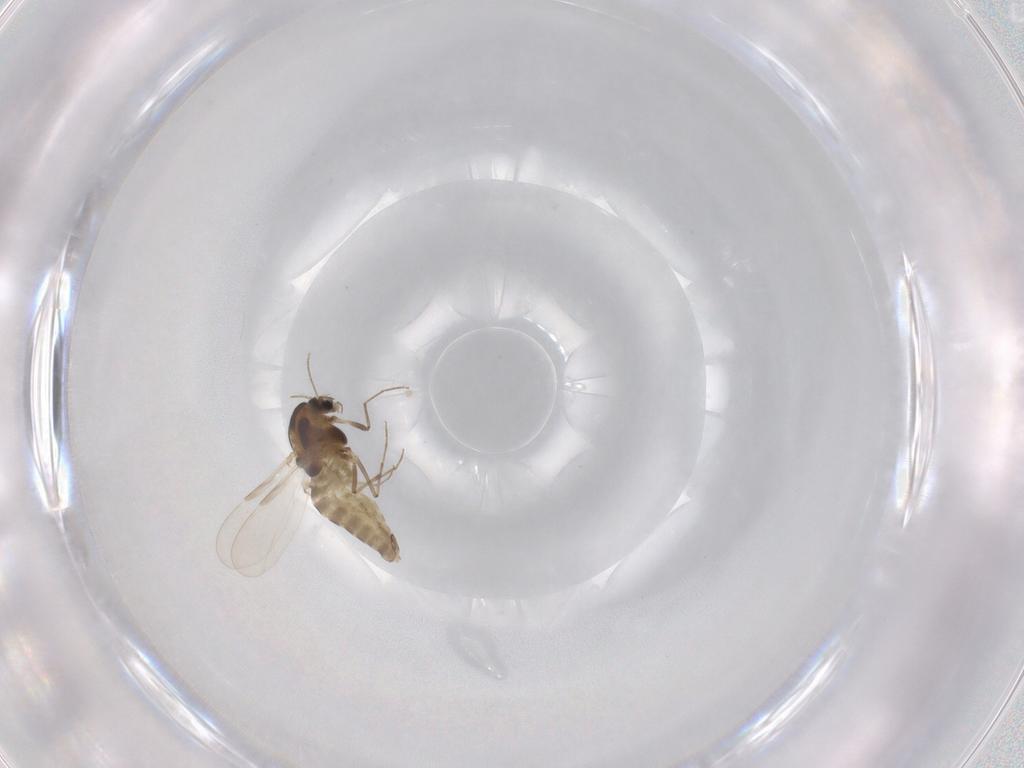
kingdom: Animalia
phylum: Arthropoda
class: Insecta
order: Diptera
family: Chironomidae
